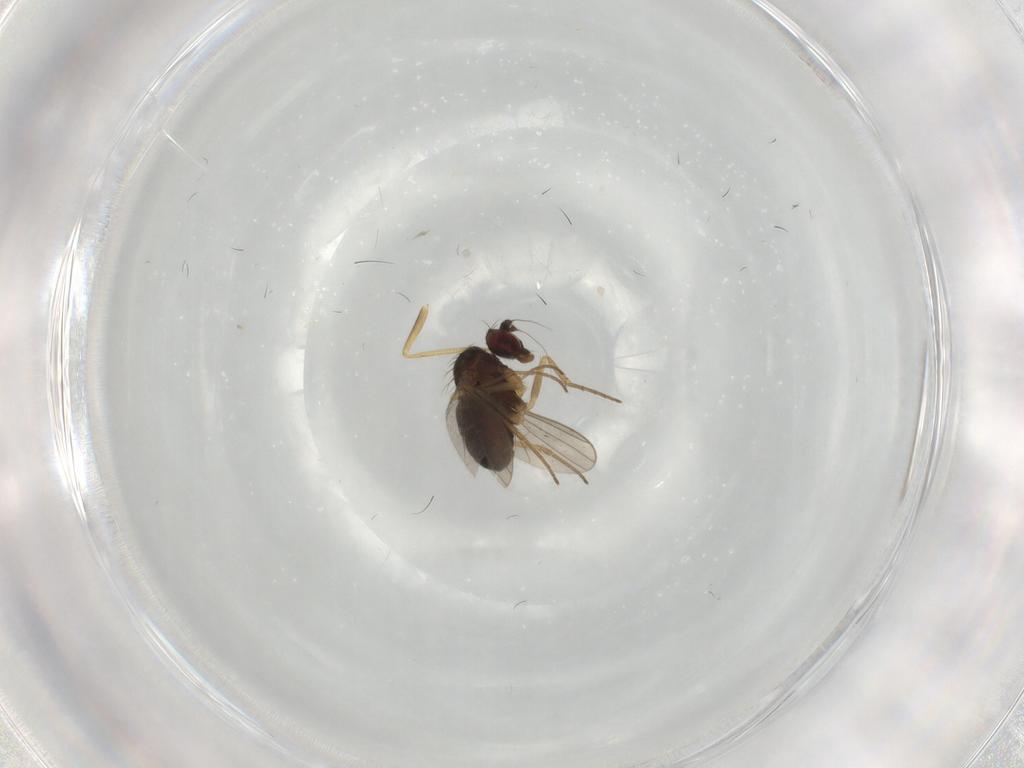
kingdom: Animalia
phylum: Arthropoda
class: Insecta
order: Diptera
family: Dolichopodidae
